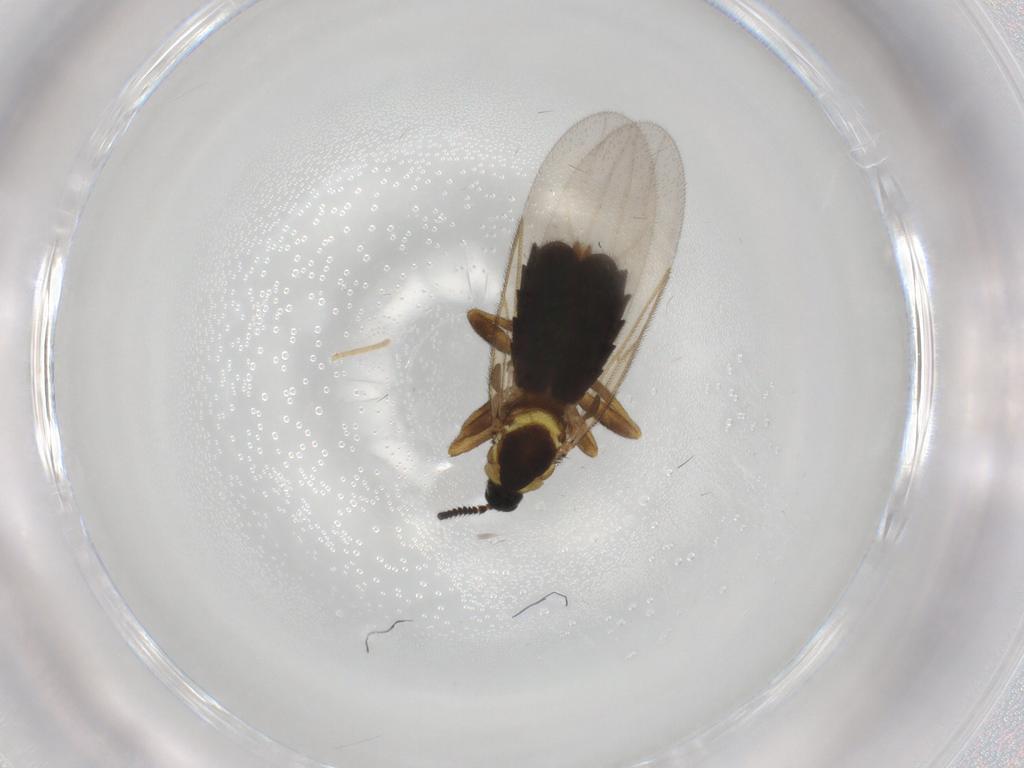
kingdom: Animalia
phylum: Arthropoda
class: Insecta
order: Diptera
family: Scatopsidae
